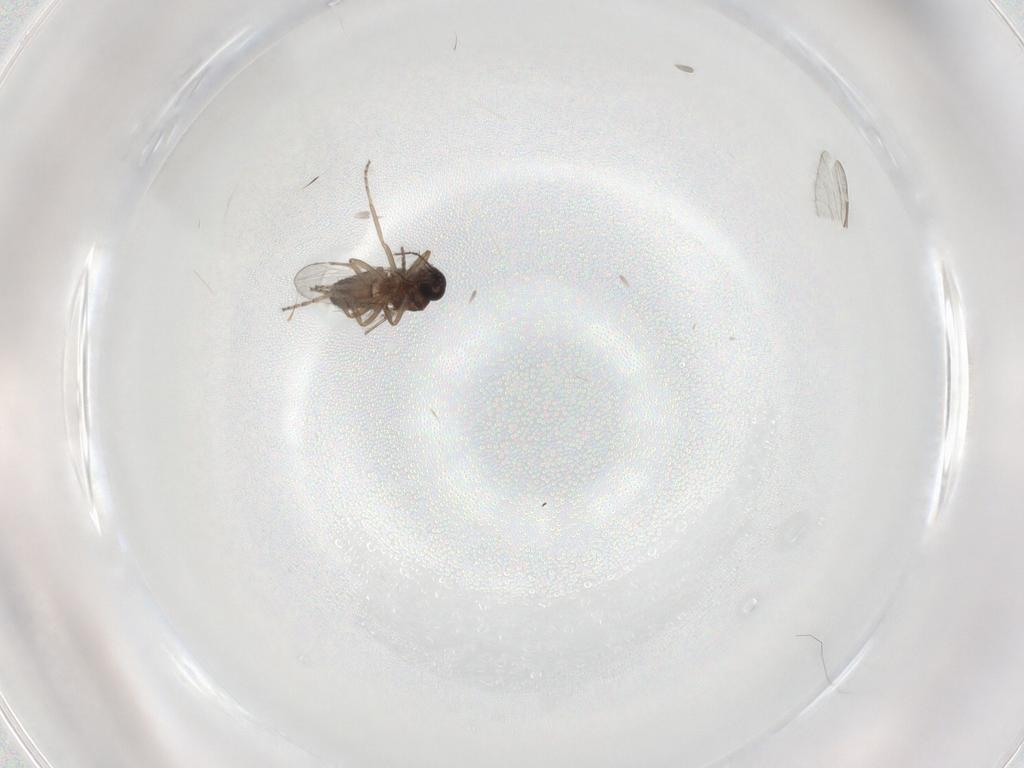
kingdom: Animalia
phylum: Arthropoda
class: Insecta
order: Diptera
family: Ceratopogonidae
